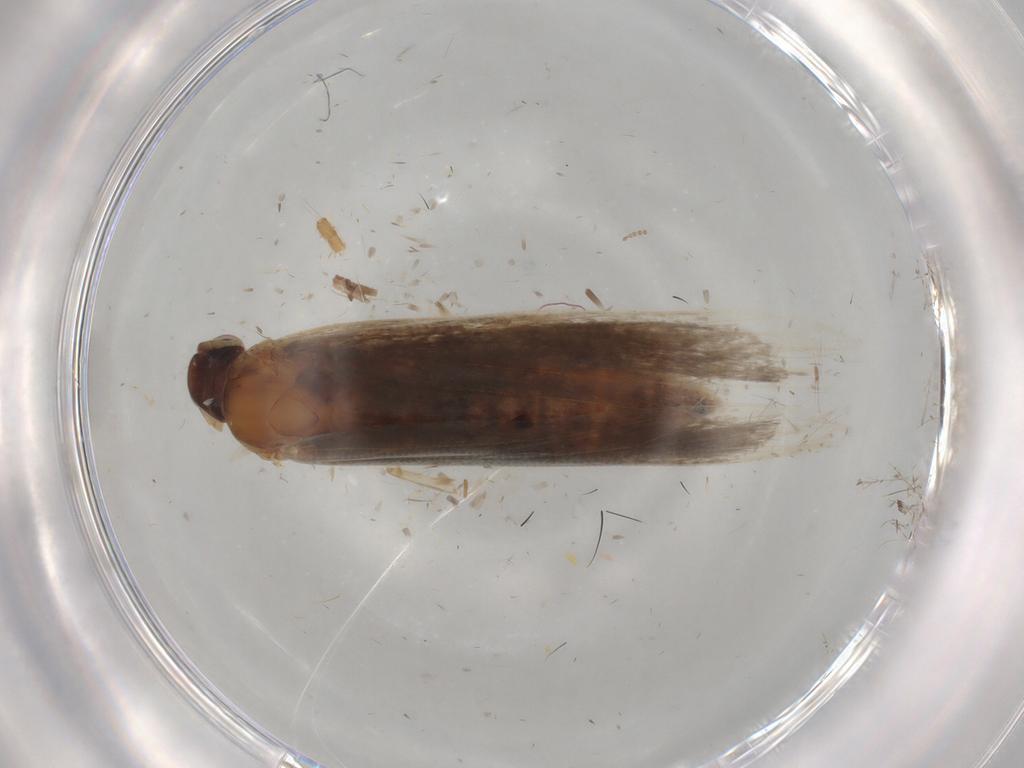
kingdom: Animalia
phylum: Arthropoda
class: Insecta
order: Lepidoptera
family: Gelechiidae
